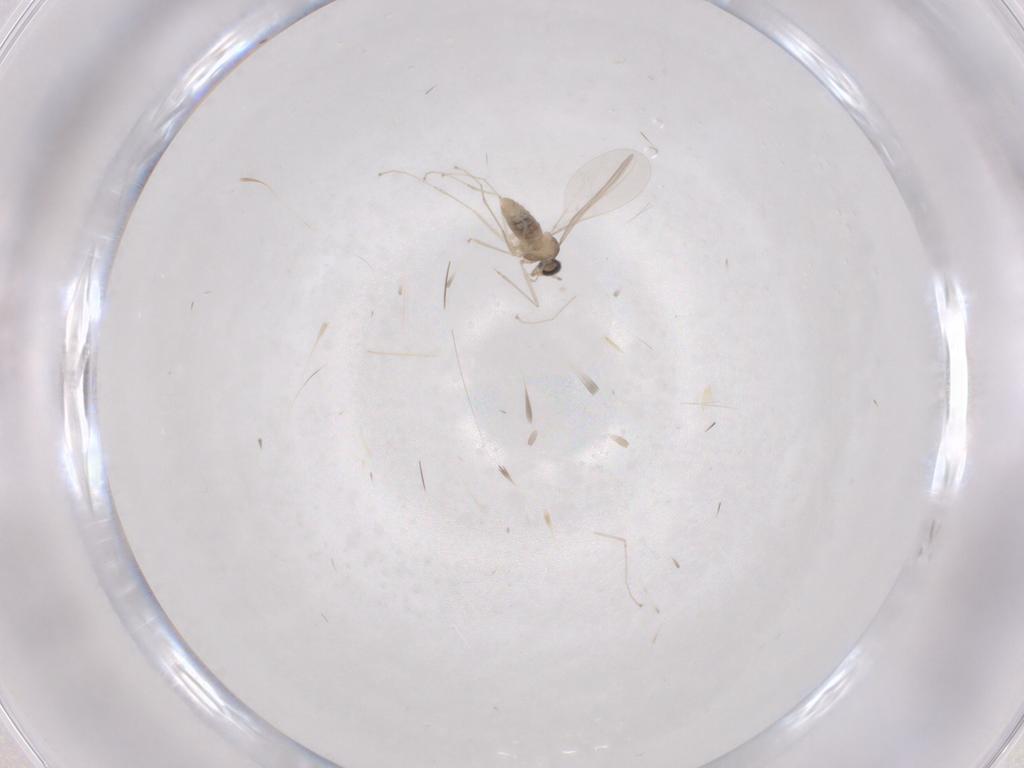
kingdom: Animalia
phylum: Arthropoda
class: Insecta
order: Diptera
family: Cecidomyiidae
